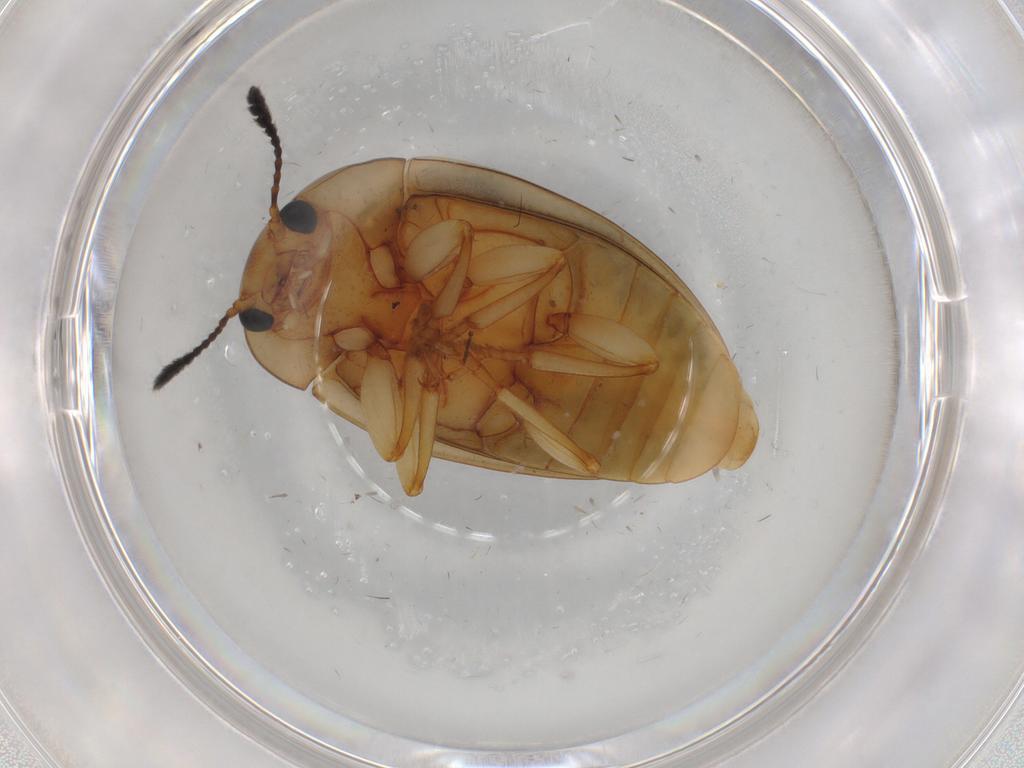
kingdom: Animalia
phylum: Arthropoda
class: Insecta
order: Coleoptera
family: Erotylidae
